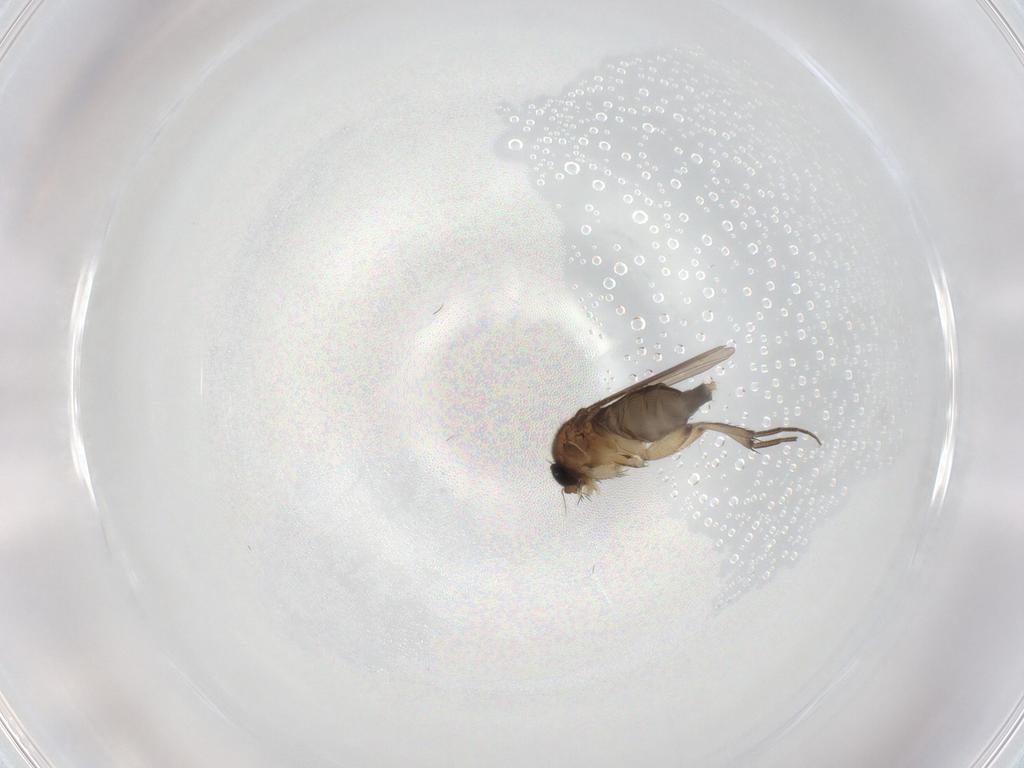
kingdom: Animalia
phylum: Arthropoda
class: Insecta
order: Diptera
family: Phoridae
